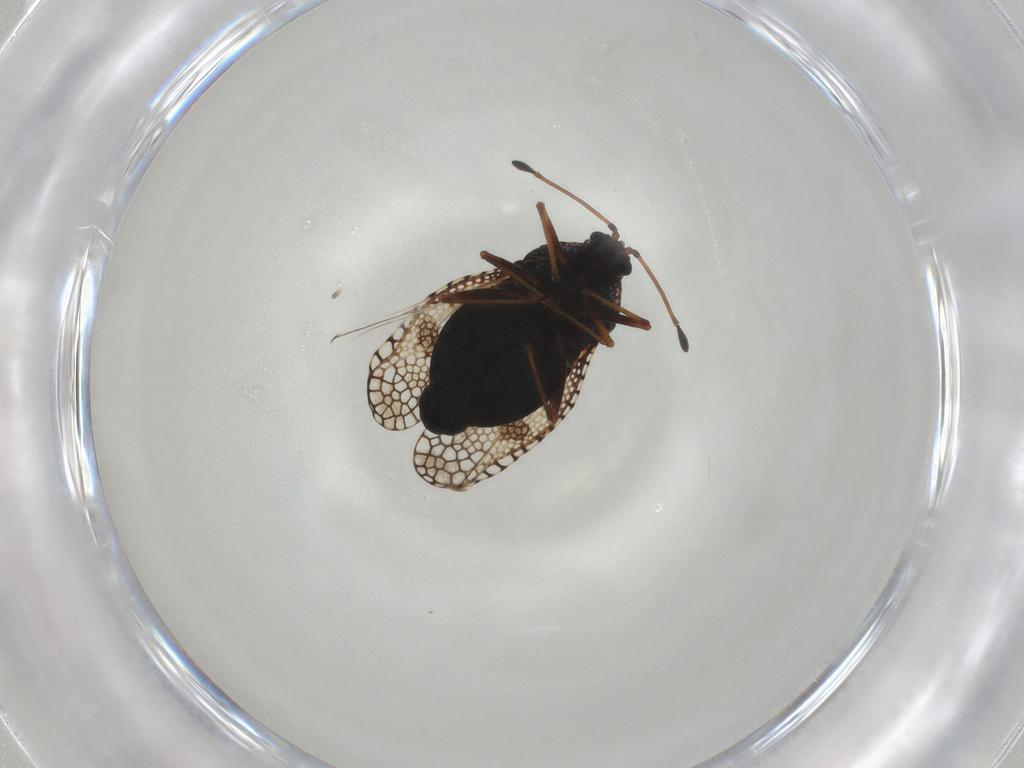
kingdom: Animalia
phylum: Arthropoda
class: Insecta
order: Hemiptera
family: Tingidae
